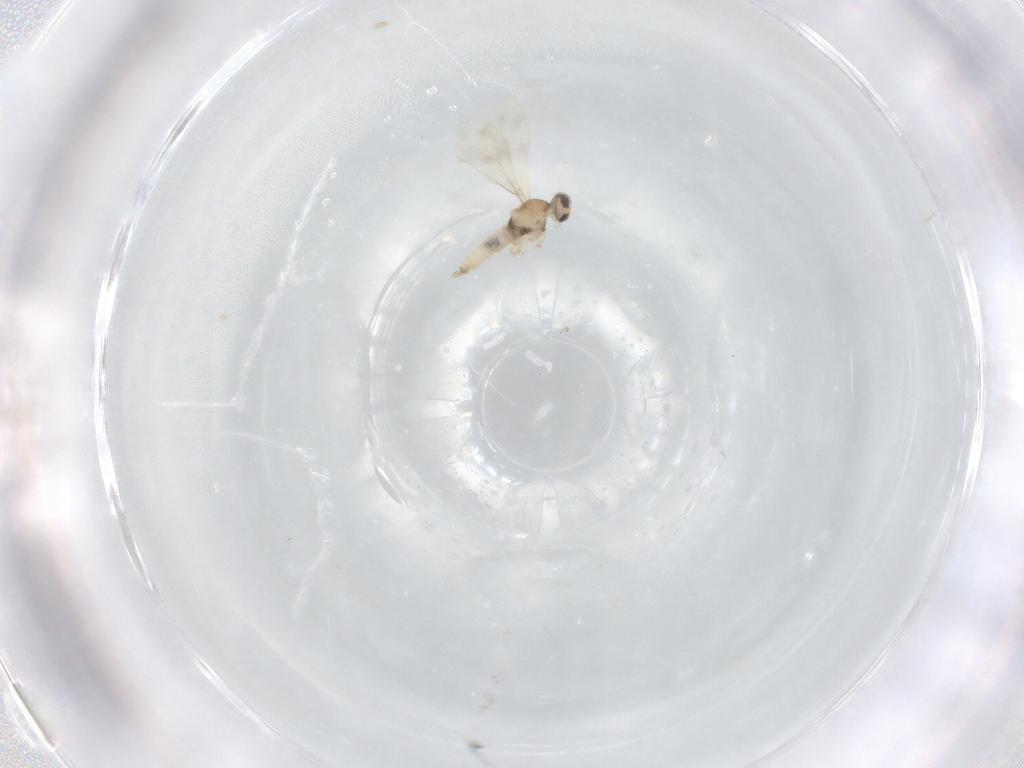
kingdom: Animalia
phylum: Arthropoda
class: Insecta
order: Diptera
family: Cecidomyiidae
